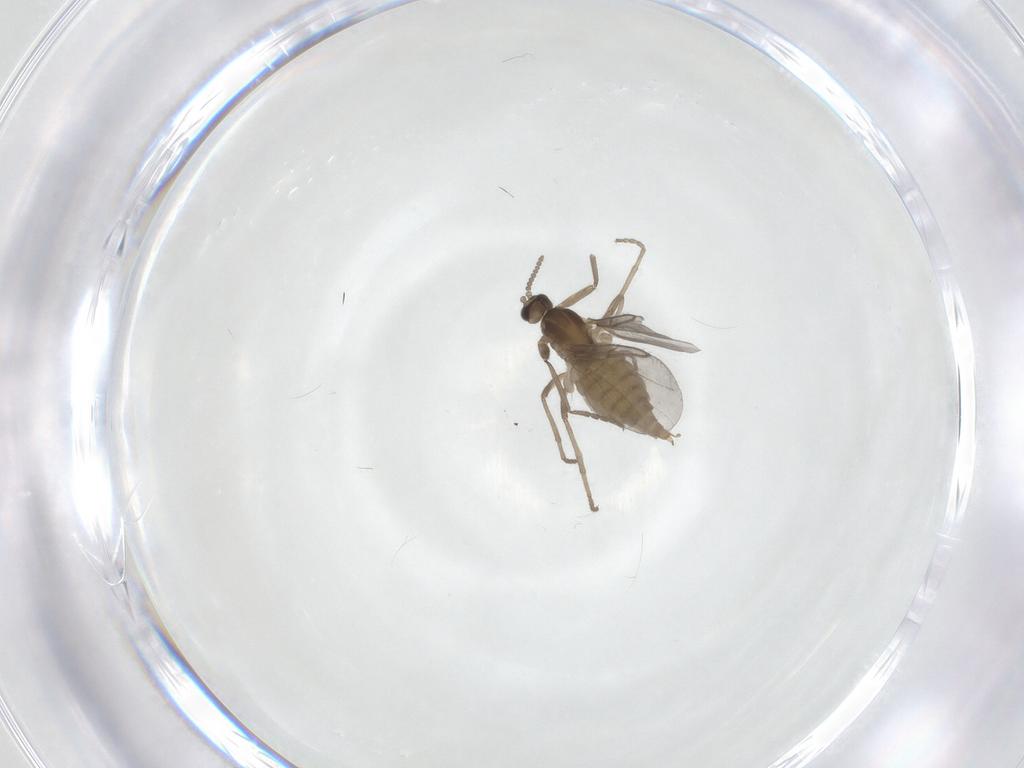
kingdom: Animalia
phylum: Arthropoda
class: Insecta
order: Diptera
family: Cecidomyiidae
